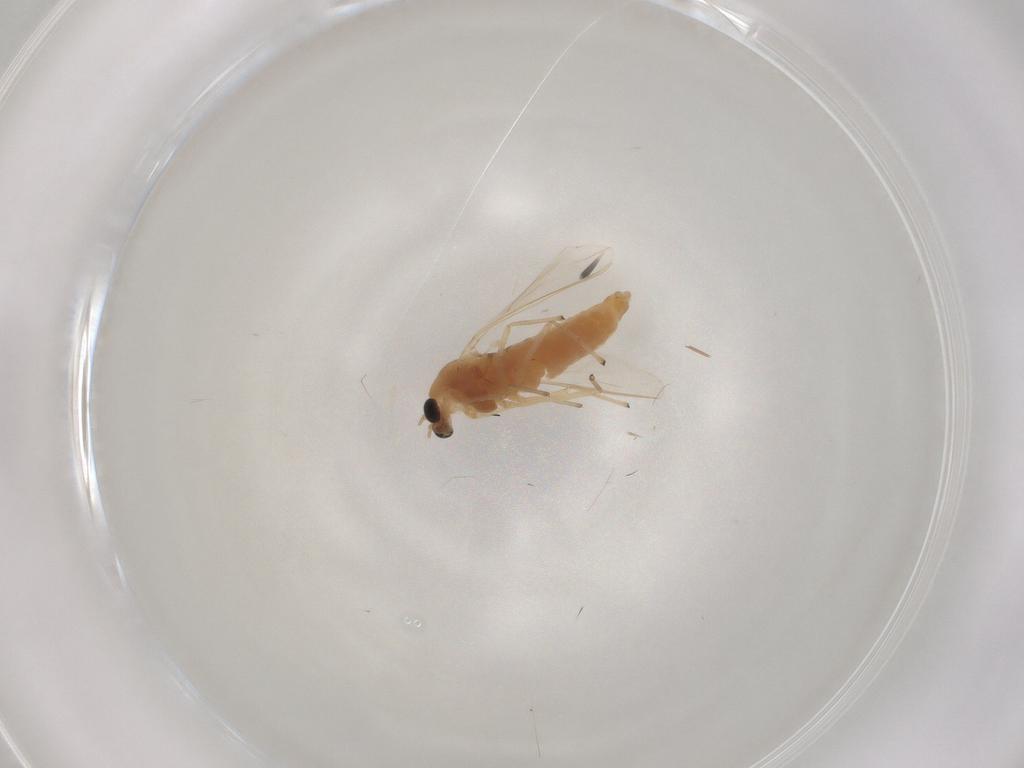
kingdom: Animalia
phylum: Arthropoda
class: Insecta
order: Diptera
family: Chironomidae
